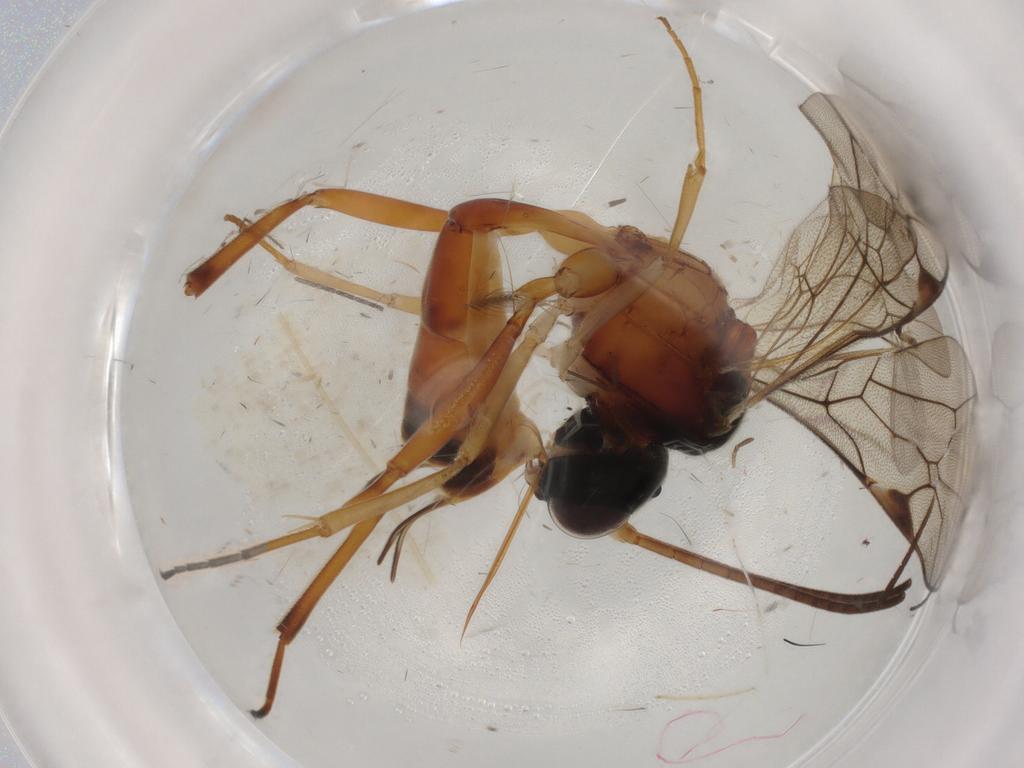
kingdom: Animalia
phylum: Arthropoda
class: Insecta
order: Hymenoptera
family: Ichneumonidae
